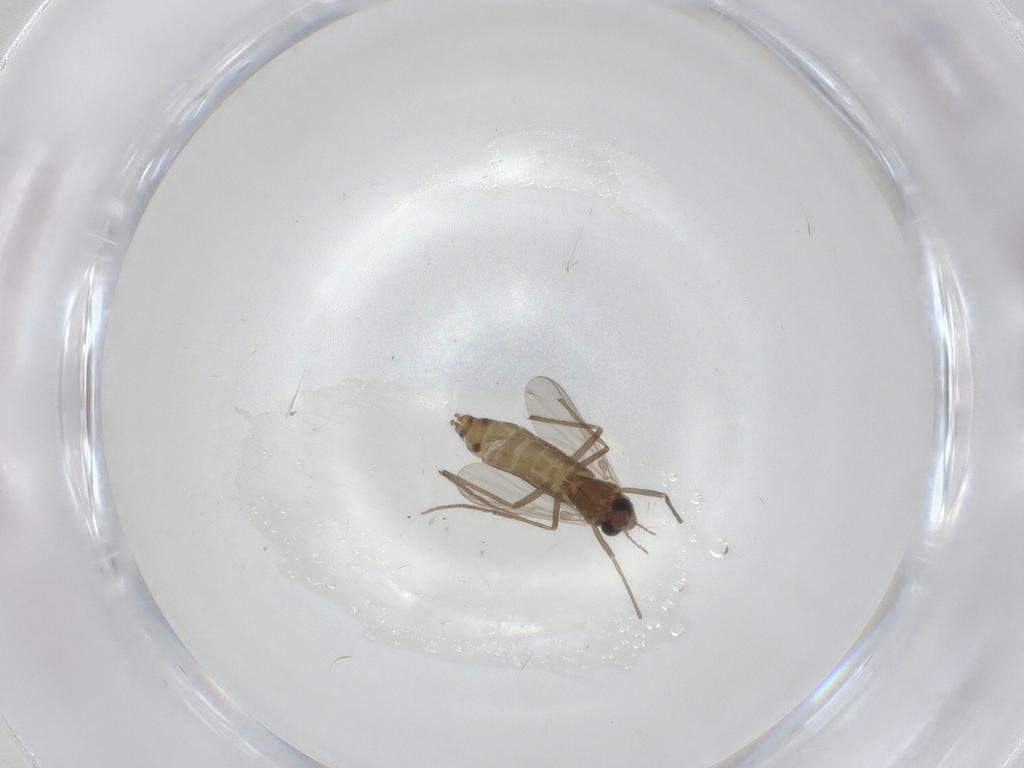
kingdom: Animalia
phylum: Arthropoda
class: Insecta
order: Diptera
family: Chironomidae
